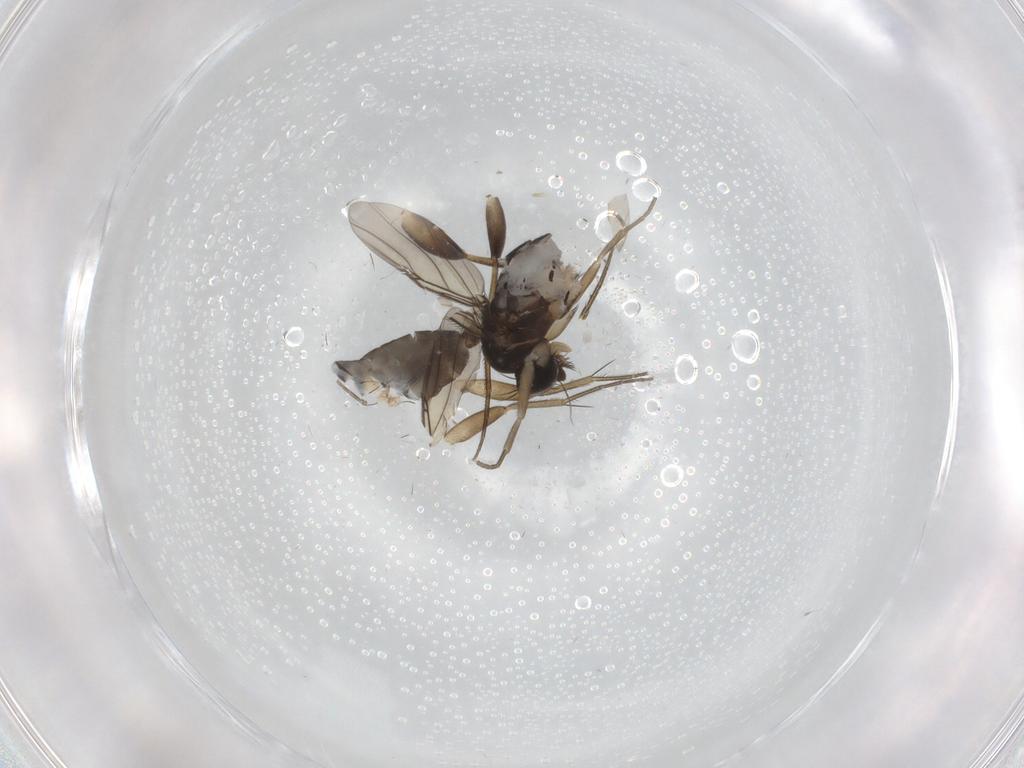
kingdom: Animalia
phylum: Arthropoda
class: Insecta
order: Diptera
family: Phoridae
